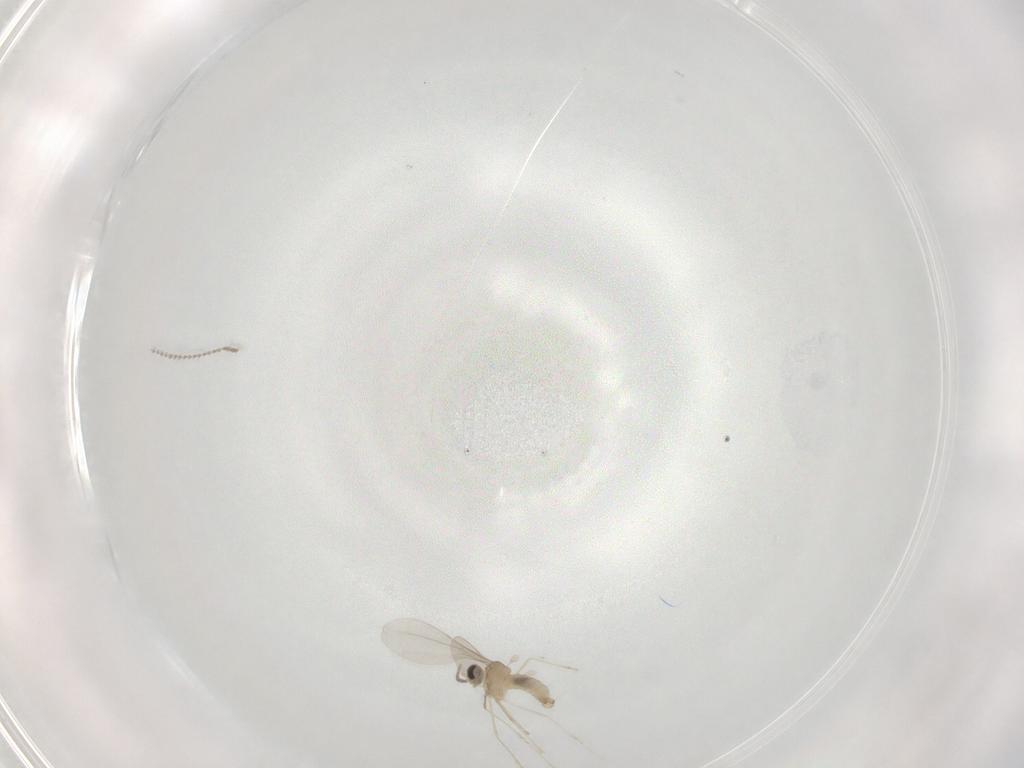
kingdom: Animalia
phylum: Arthropoda
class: Insecta
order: Diptera
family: Cecidomyiidae
